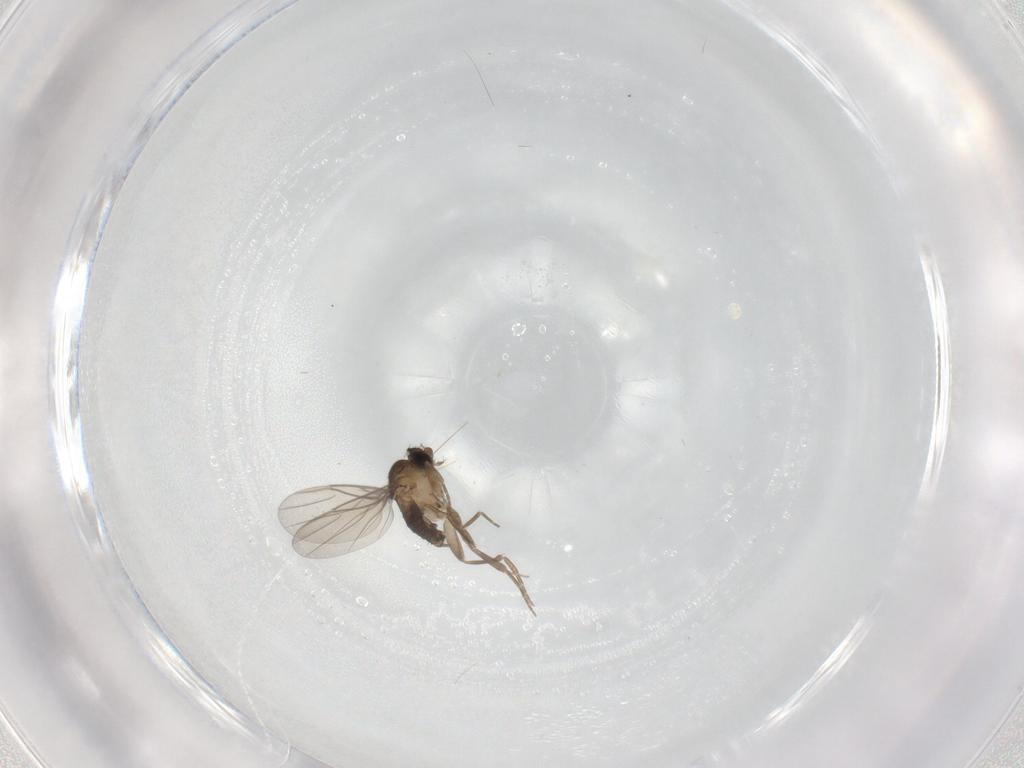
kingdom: Animalia
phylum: Arthropoda
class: Insecta
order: Diptera
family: Phoridae
